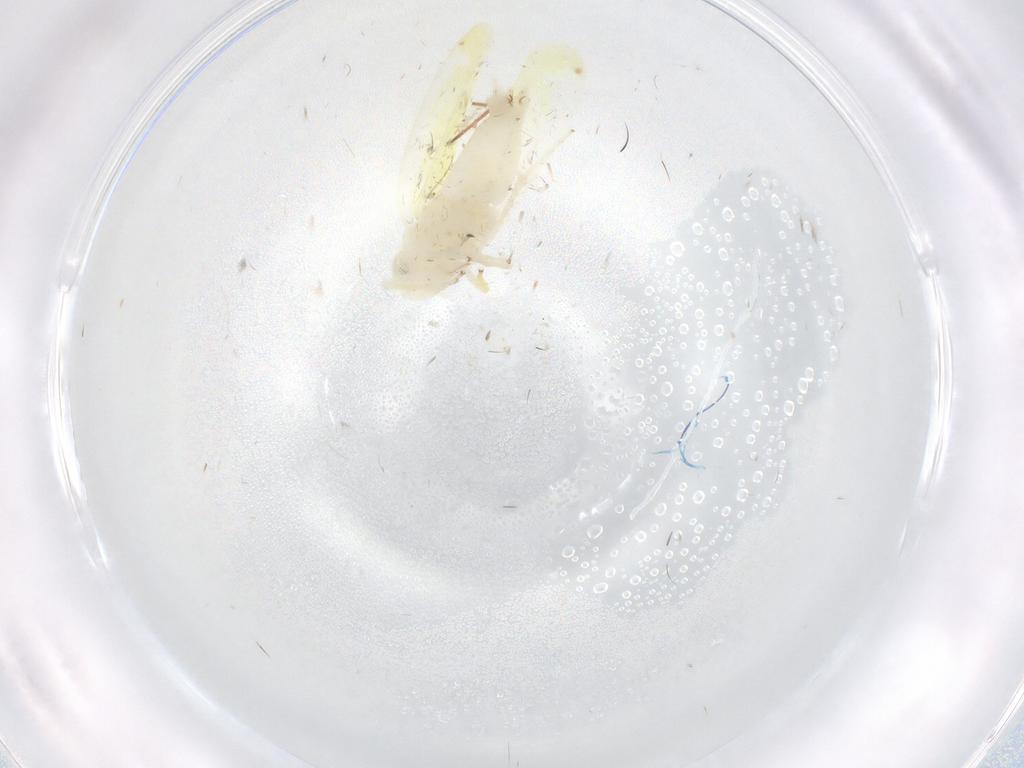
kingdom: Animalia
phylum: Arthropoda
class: Insecta
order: Hemiptera
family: Cicadellidae
